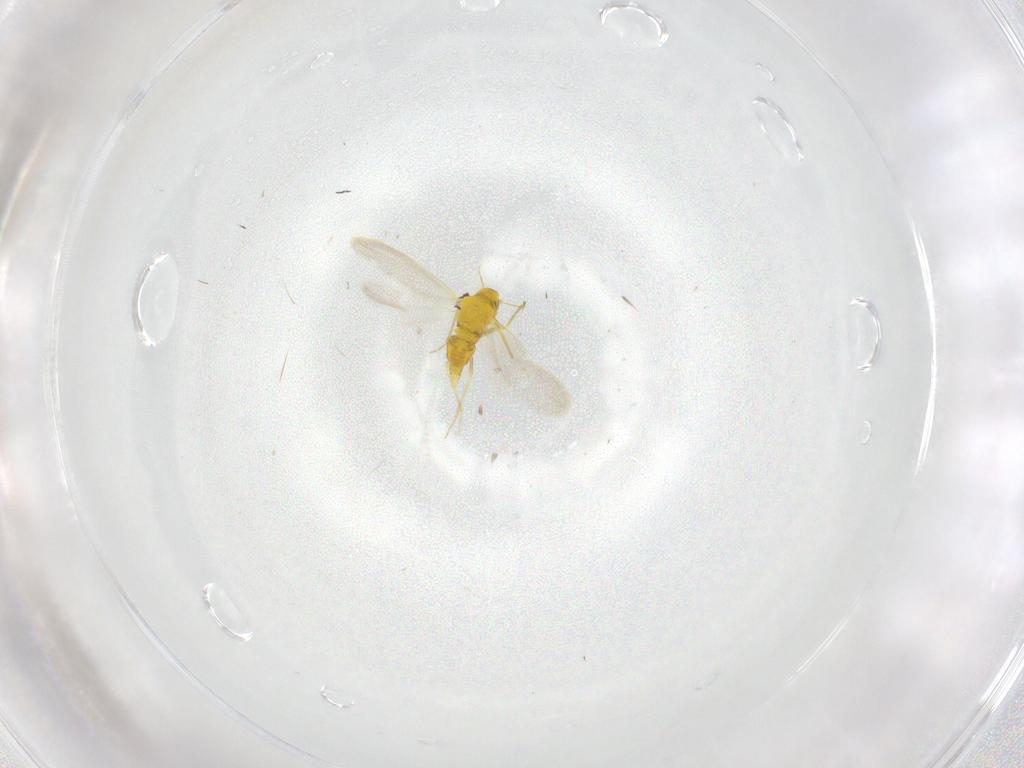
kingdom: Animalia
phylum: Arthropoda
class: Insecta
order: Hemiptera
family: Aleyrodidae
